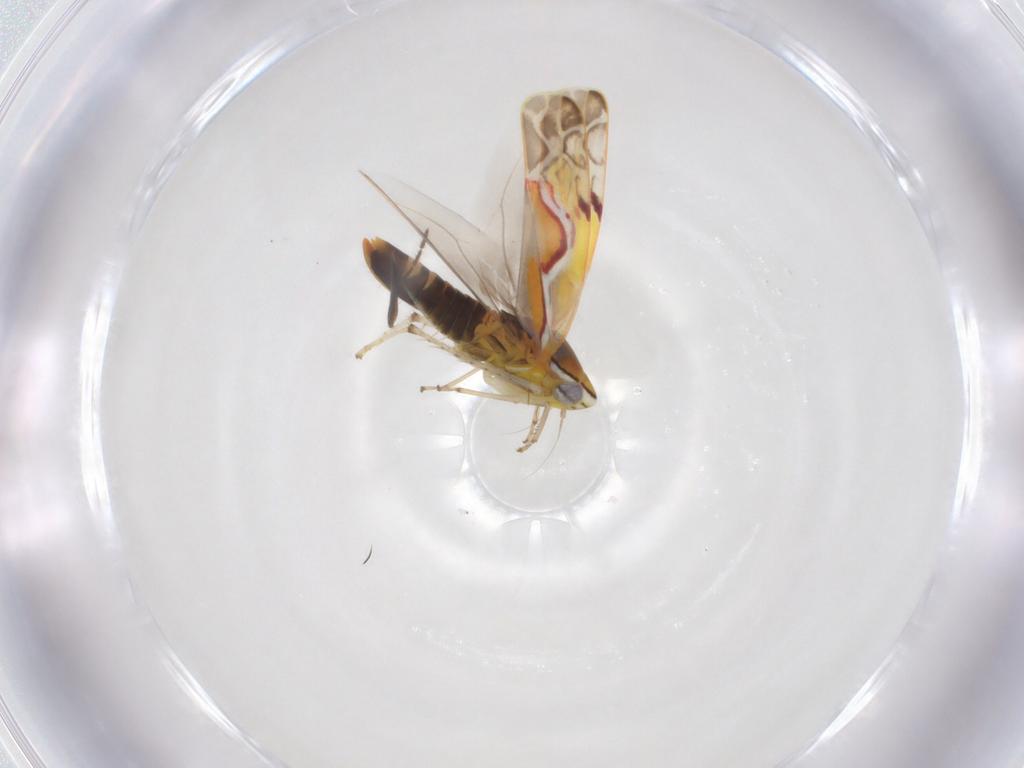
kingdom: Animalia
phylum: Arthropoda
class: Insecta
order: Hemiptera
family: Cicadellidae
